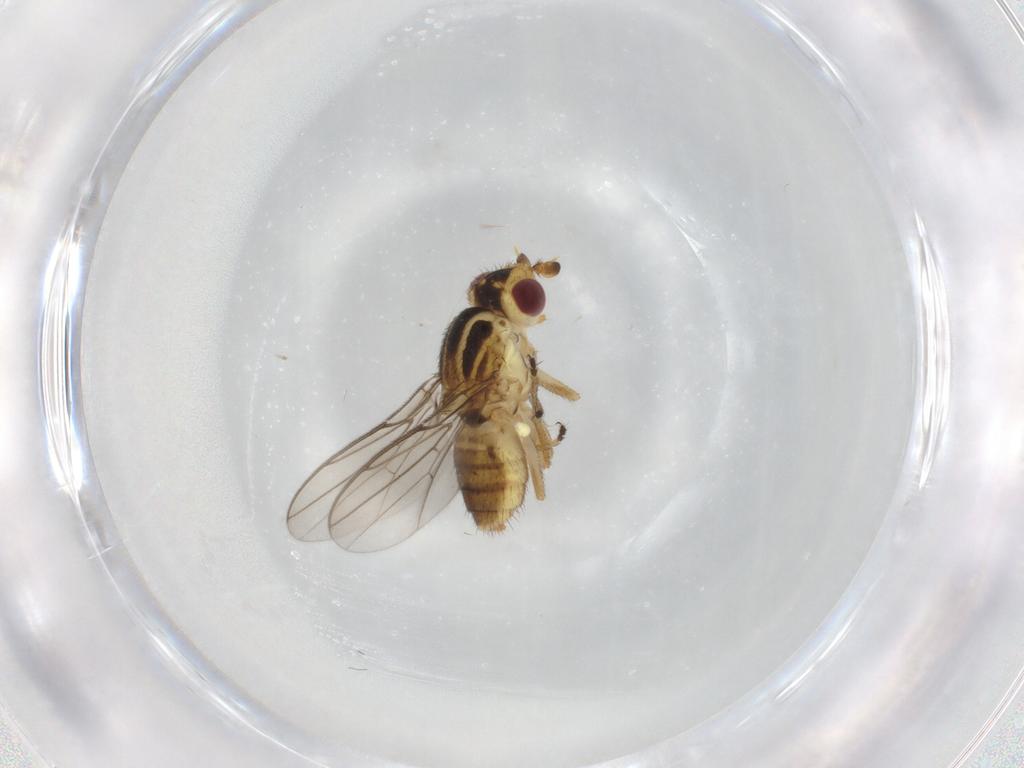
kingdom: Animalia
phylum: Arthropoda
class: Insecta
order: Diptera
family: Chloropidae
